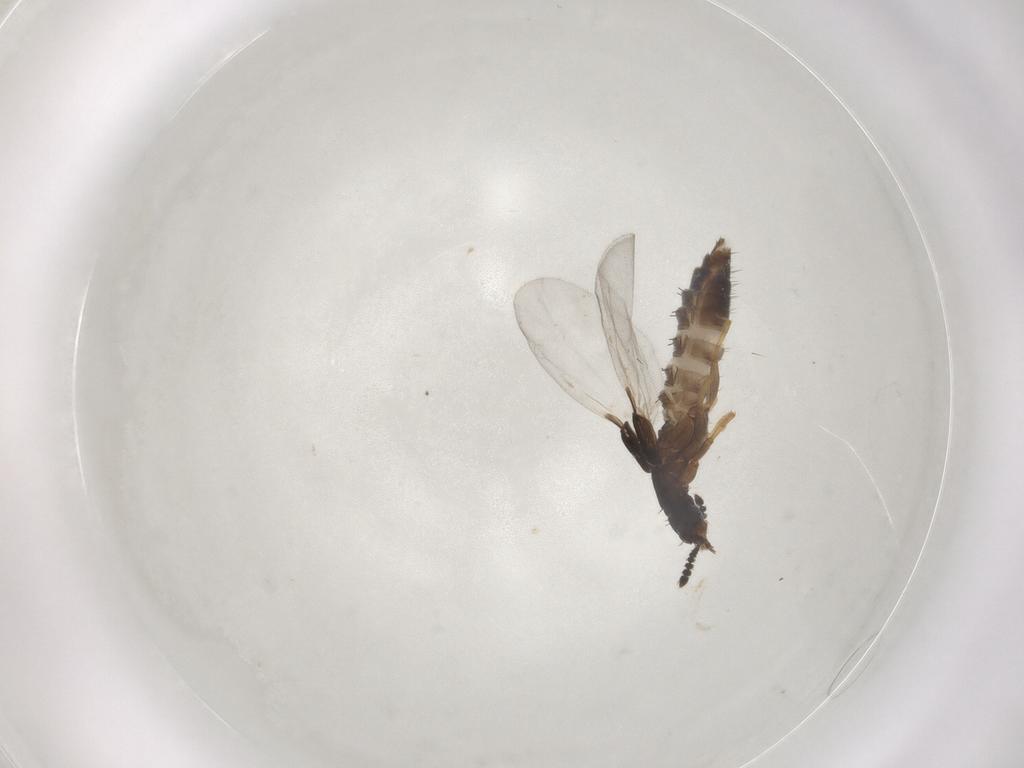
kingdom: Animalia
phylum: Arthropoda
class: Insecta
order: Coleoptera
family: Staphylinidae
